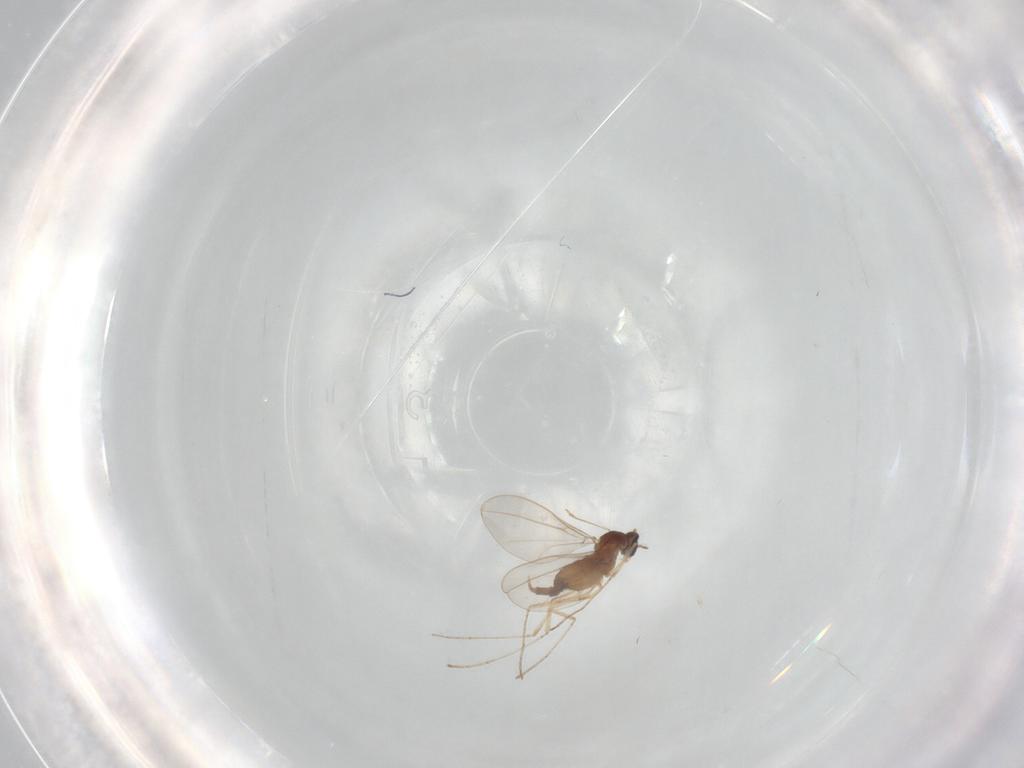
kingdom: Animalia
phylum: Arthropoda
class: Insecta
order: Diptera
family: Cecidomyiidae
